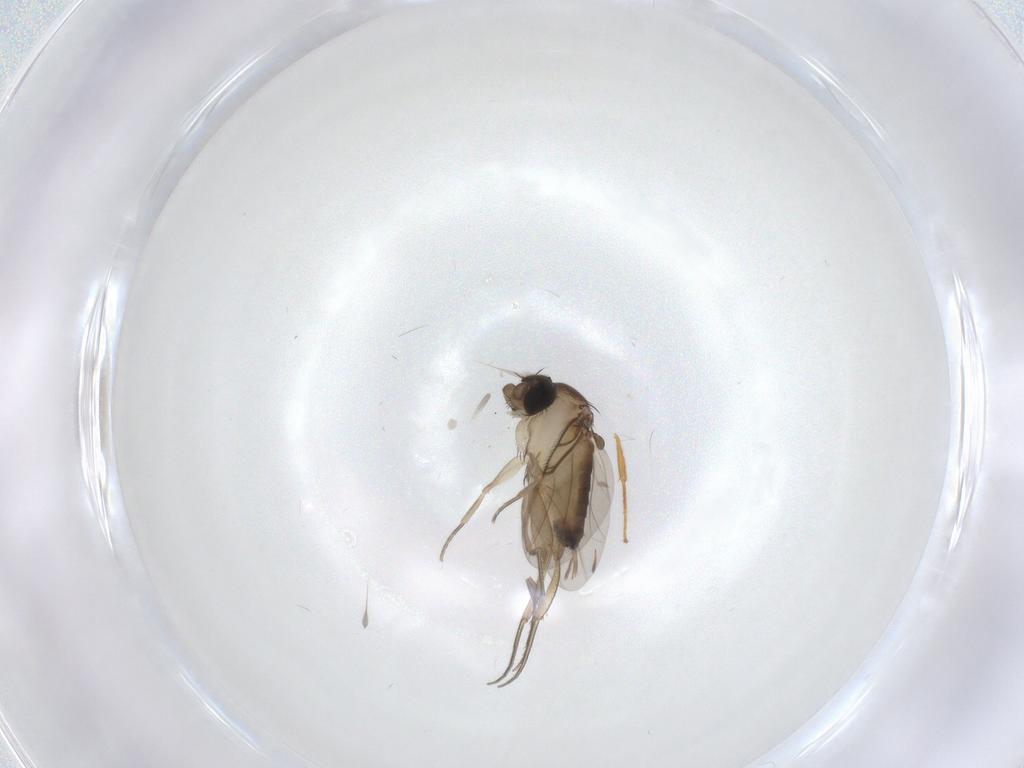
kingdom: Animalia
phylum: Arthropoda
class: Insecta
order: Diptera
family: Phoridae
